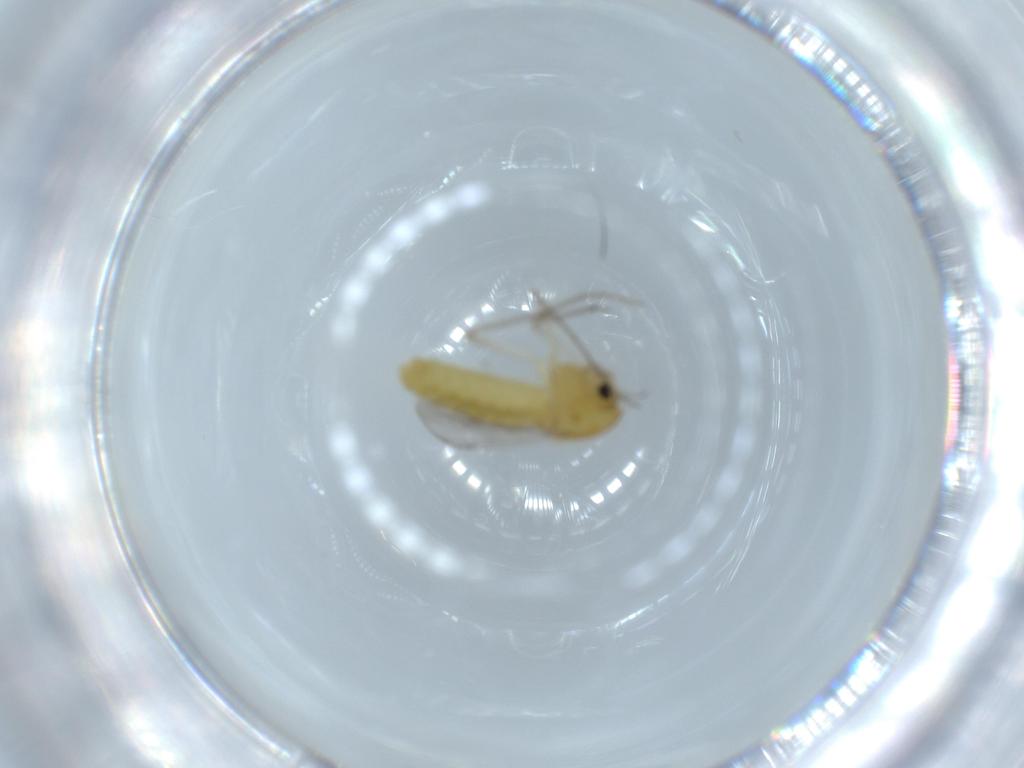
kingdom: Animalia
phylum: Arthropoda
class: Insecta
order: Diptera
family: Chironomidae
